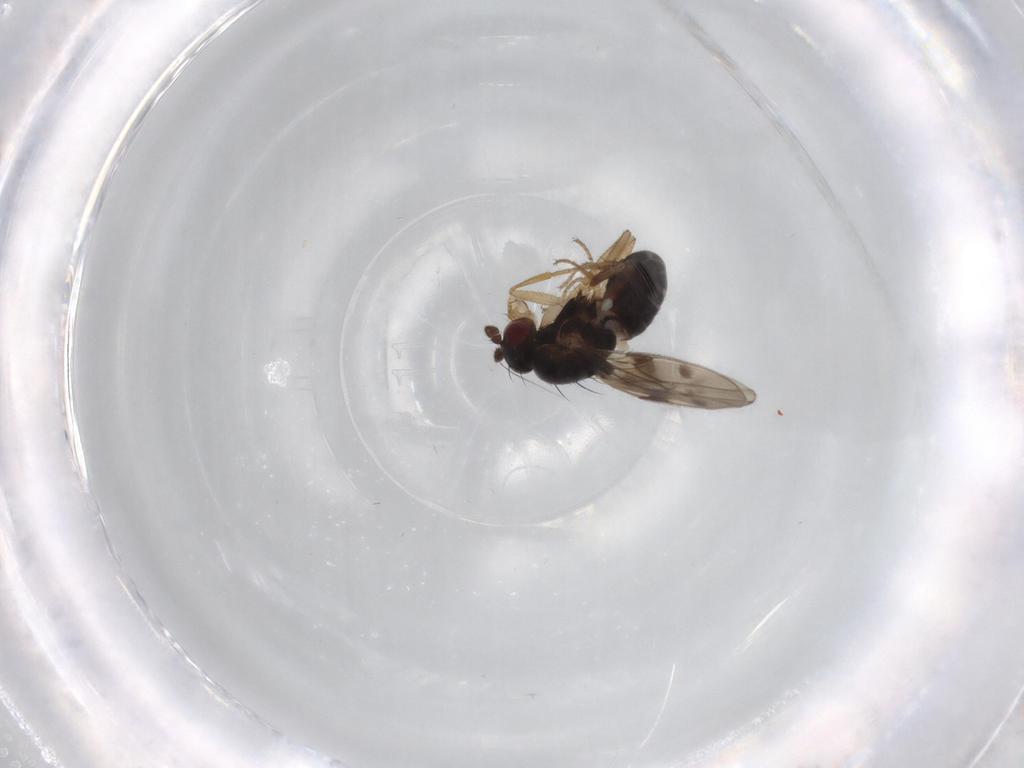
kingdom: Animalia
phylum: Arthropoda
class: Insecta
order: Diptera
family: Sphaeroceridae
